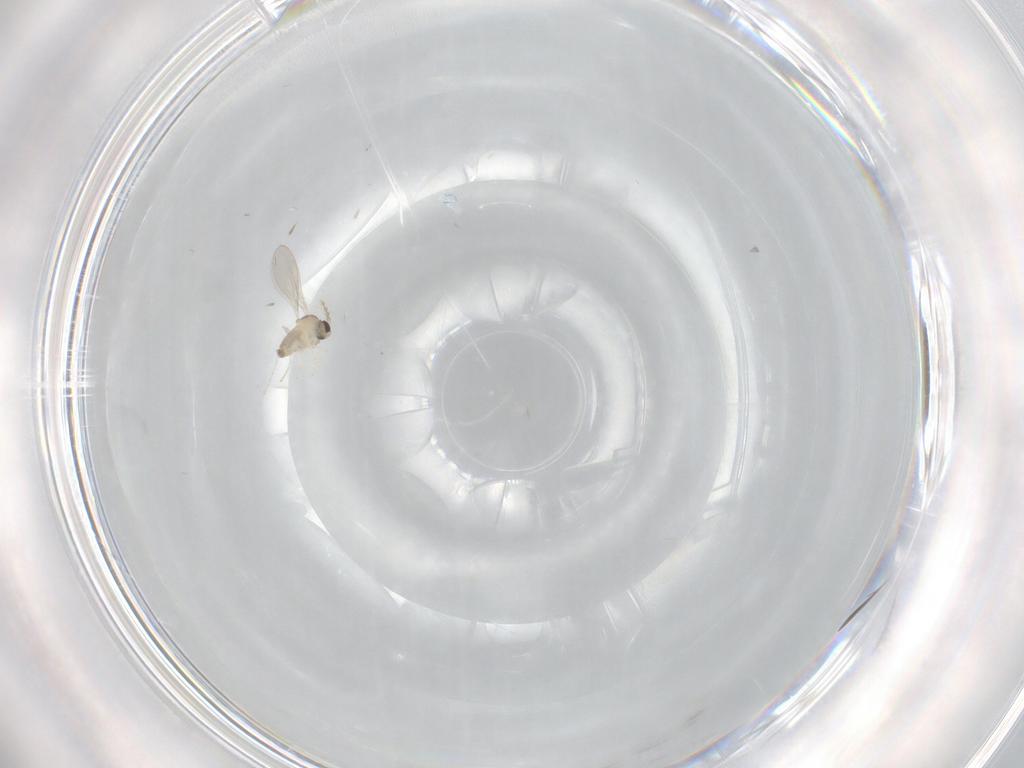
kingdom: Animalia
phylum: Arthropoda
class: Insecta
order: Diptera
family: Cecidomyiidae
